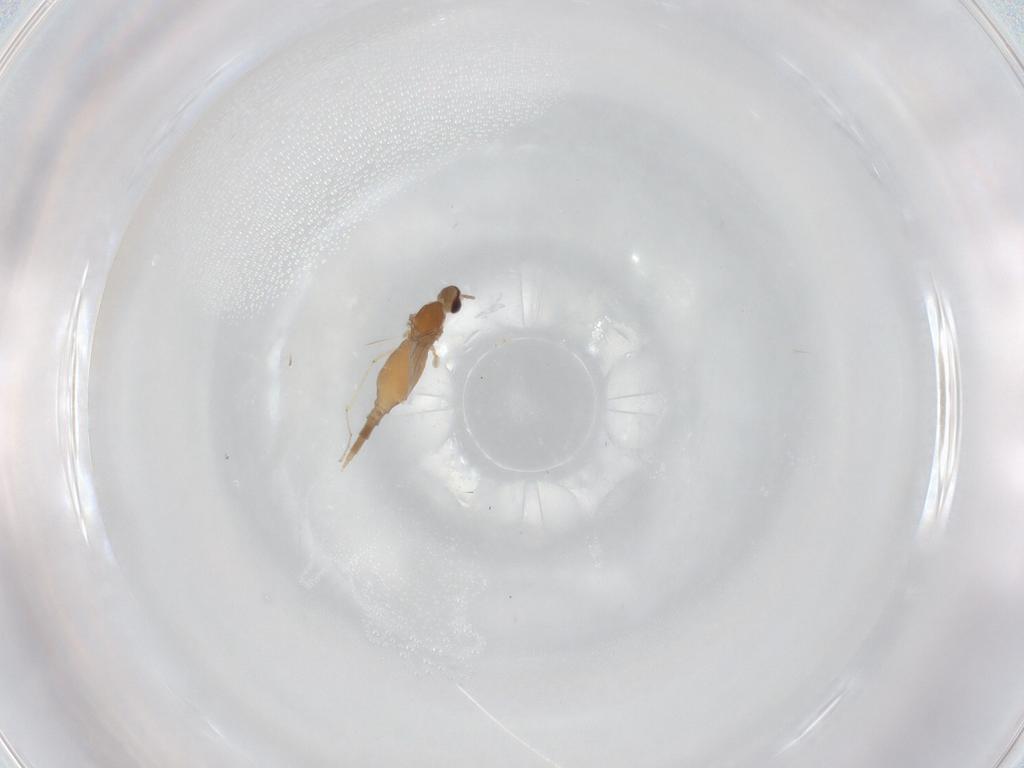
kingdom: Animalia
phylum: Arthropoda
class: Insecta
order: Diptera
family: Cecidomyiidae
